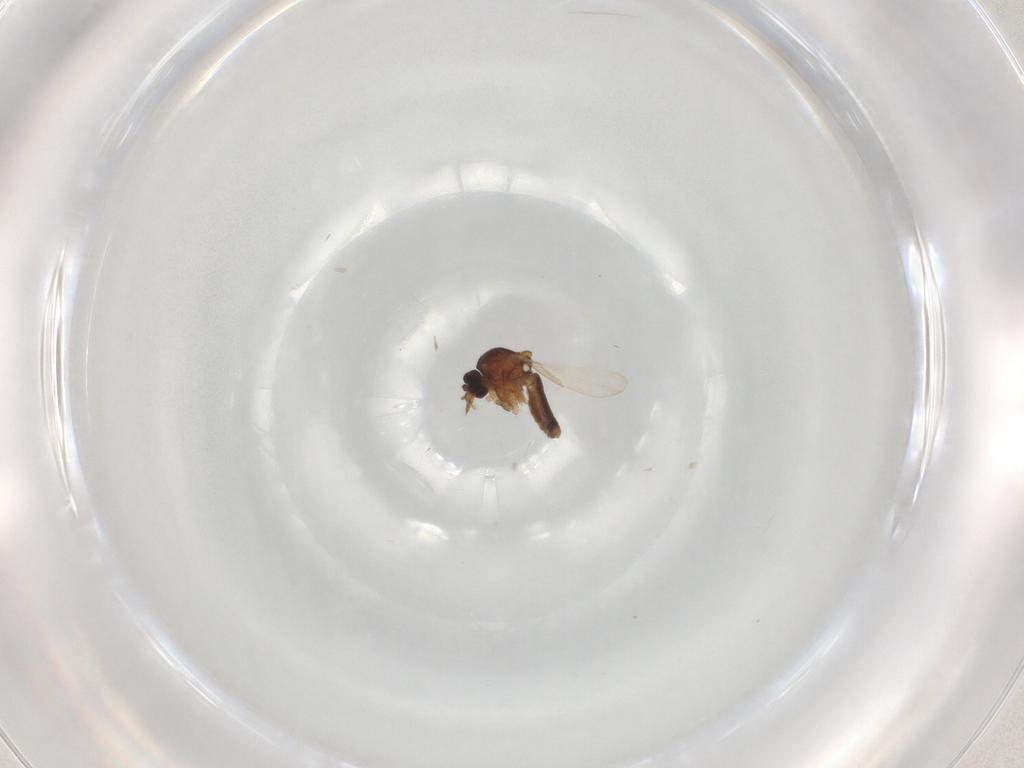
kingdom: Animalia
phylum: Arthropoda
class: Insecta
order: Diptera
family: Ceratopogonidae
